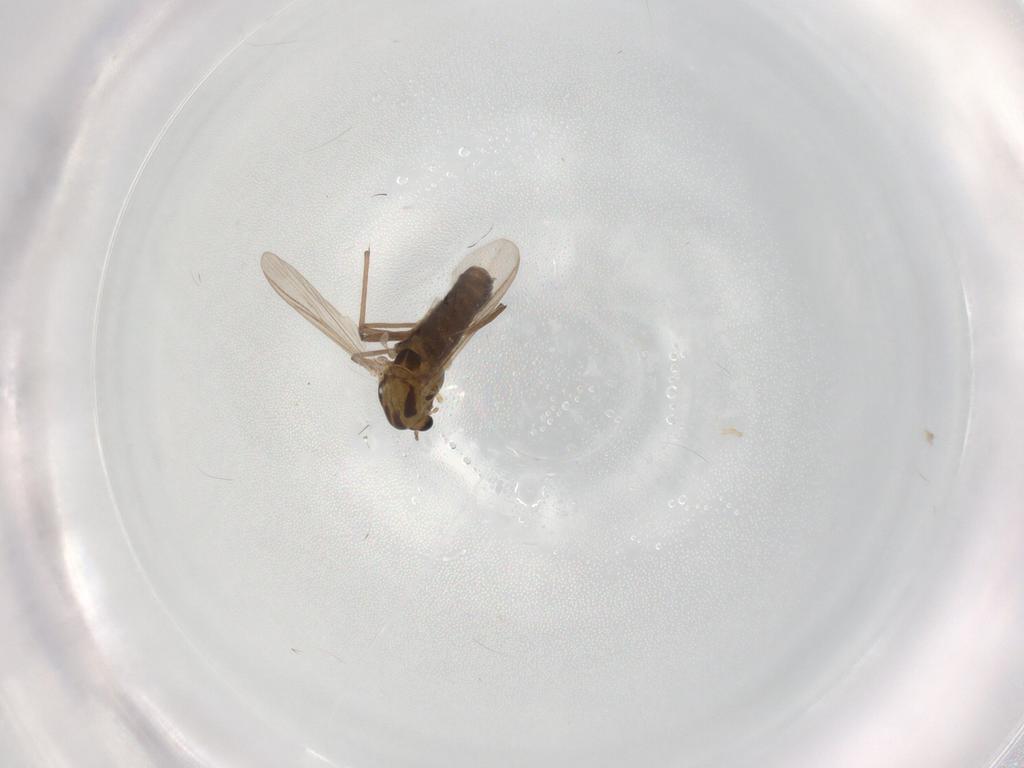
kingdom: Animalia
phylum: Arthropoda
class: Insecta
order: Diptera
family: Chironomidae
